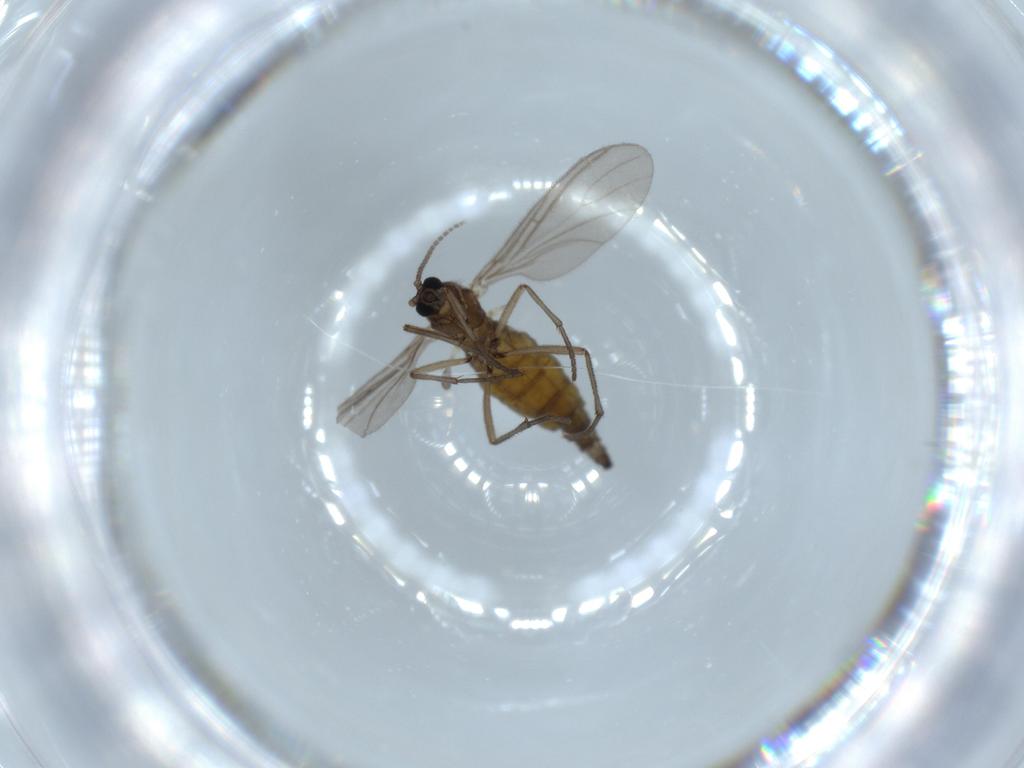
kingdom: Animalia
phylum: Arthropoda
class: Insecta
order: Diptera
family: Sciaridae
